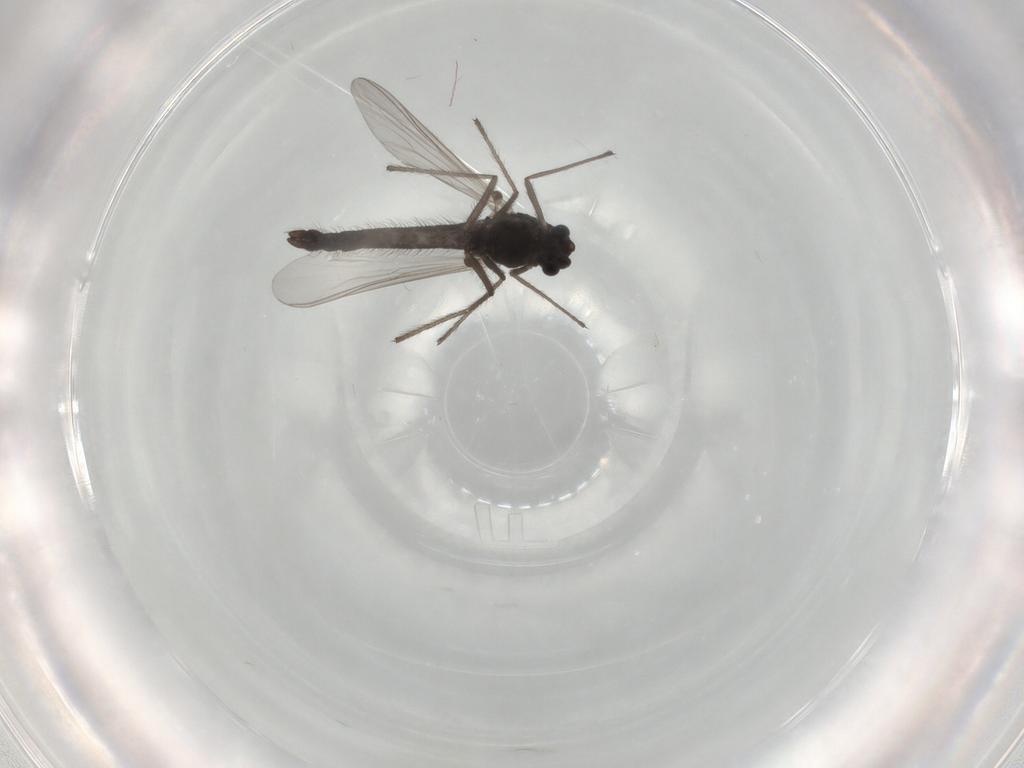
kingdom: Animalia
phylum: Arthropoda
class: Insecta
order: Diptera
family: Chironomidae
